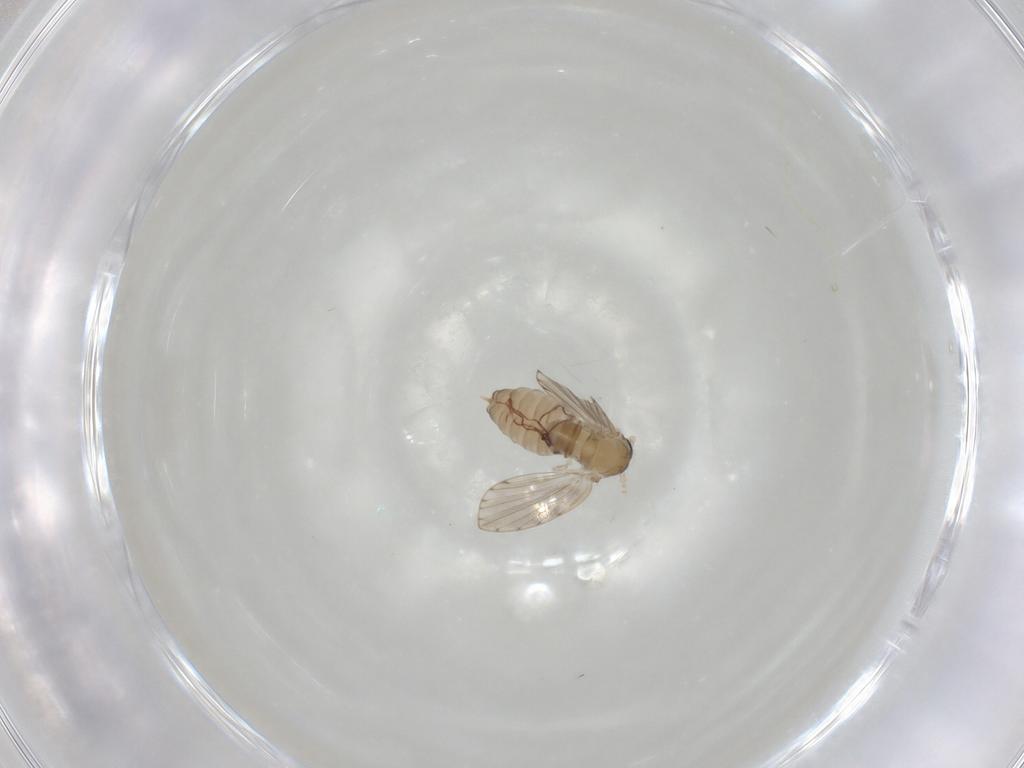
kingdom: Animalia
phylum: Arthropoda
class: Insecta
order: Diptera
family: Psychodidae
